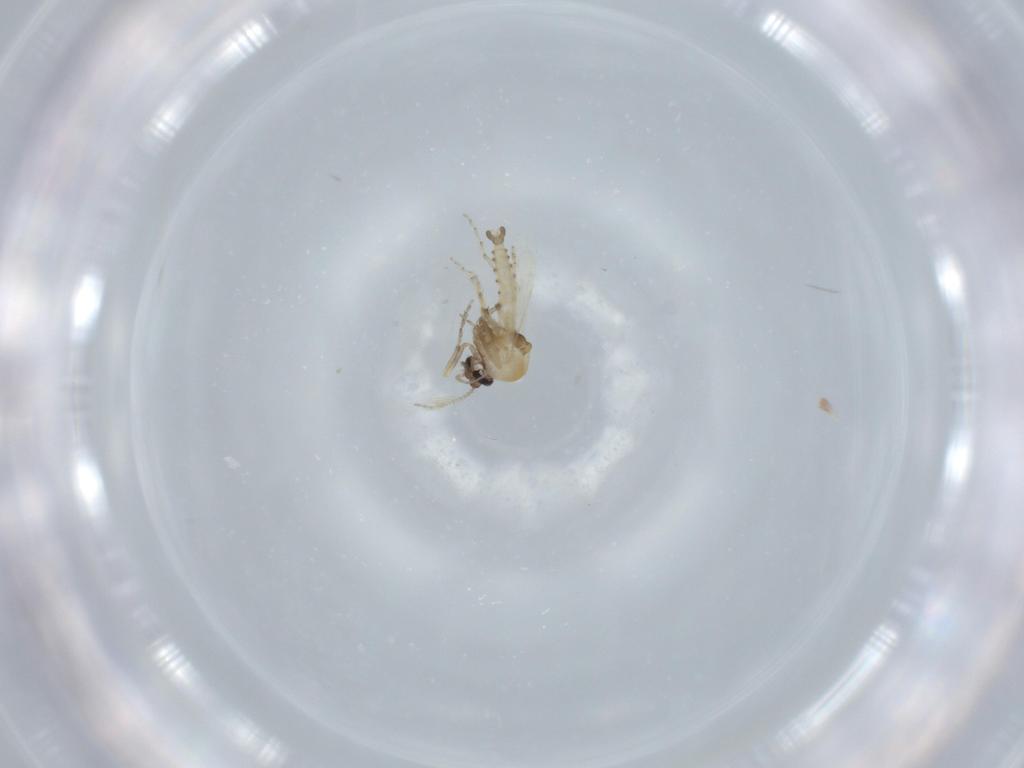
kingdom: Animalia
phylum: Arthropoda
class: Insecta
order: Diptera
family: Ceratopogonidae
